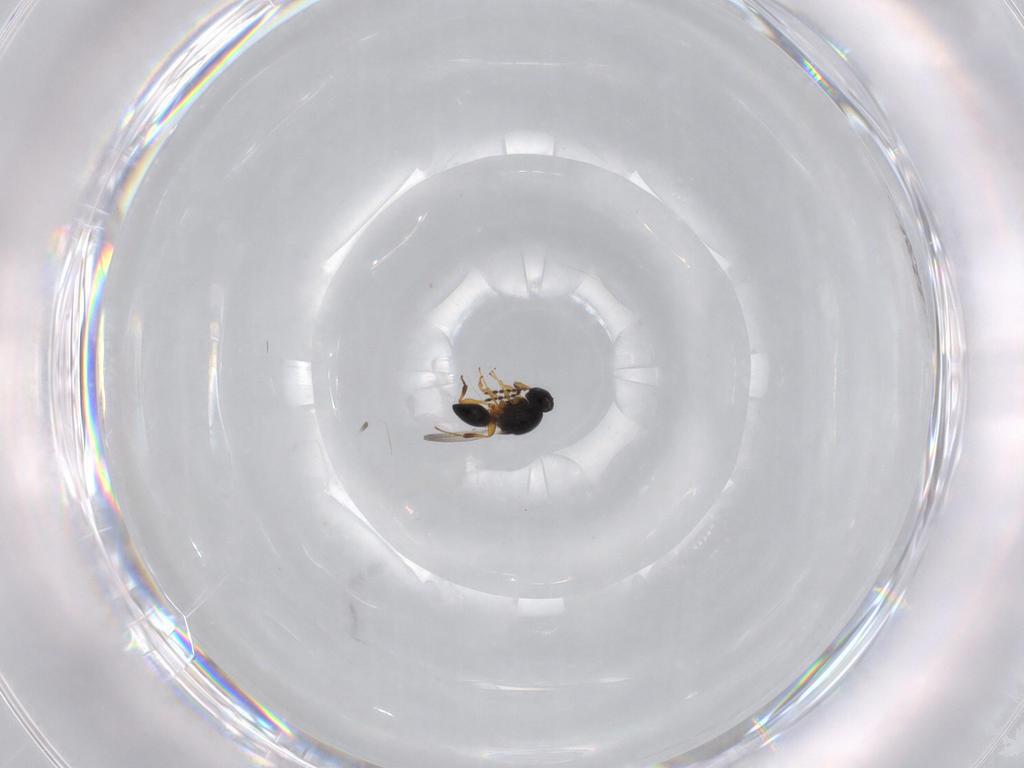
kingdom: Animalia
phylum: Arthropoda
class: Insecta
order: Hymenoptera
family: Platygastridae
